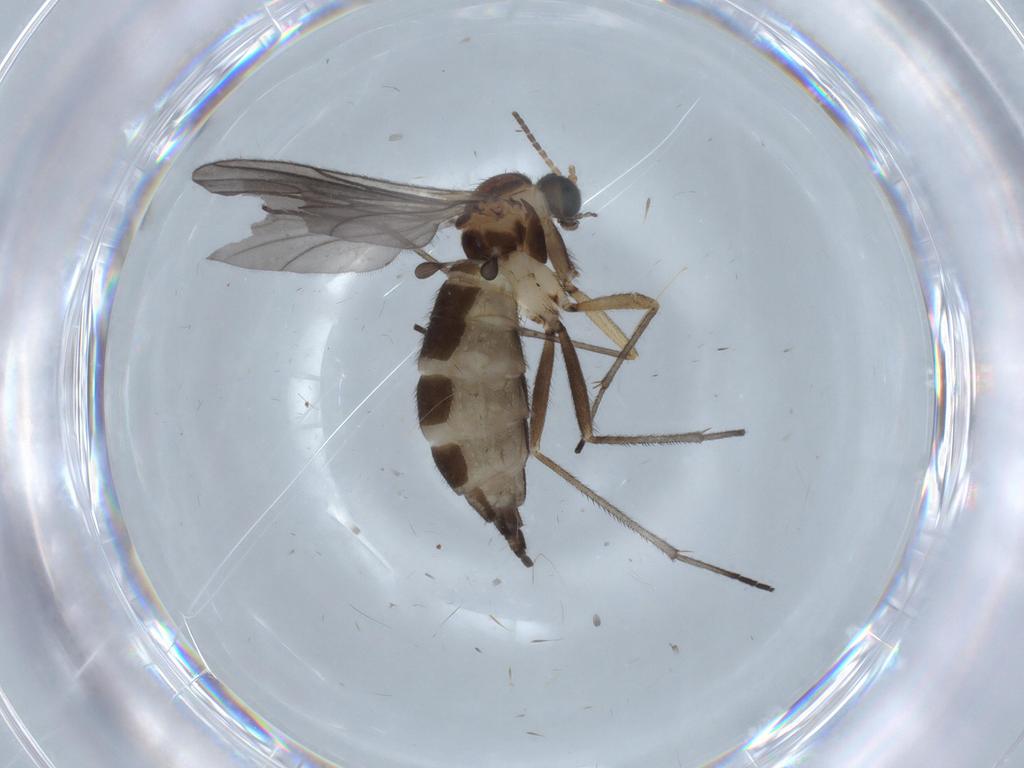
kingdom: Animalia
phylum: Arthropoda
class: Insecta
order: Diptera
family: Sciaridae
